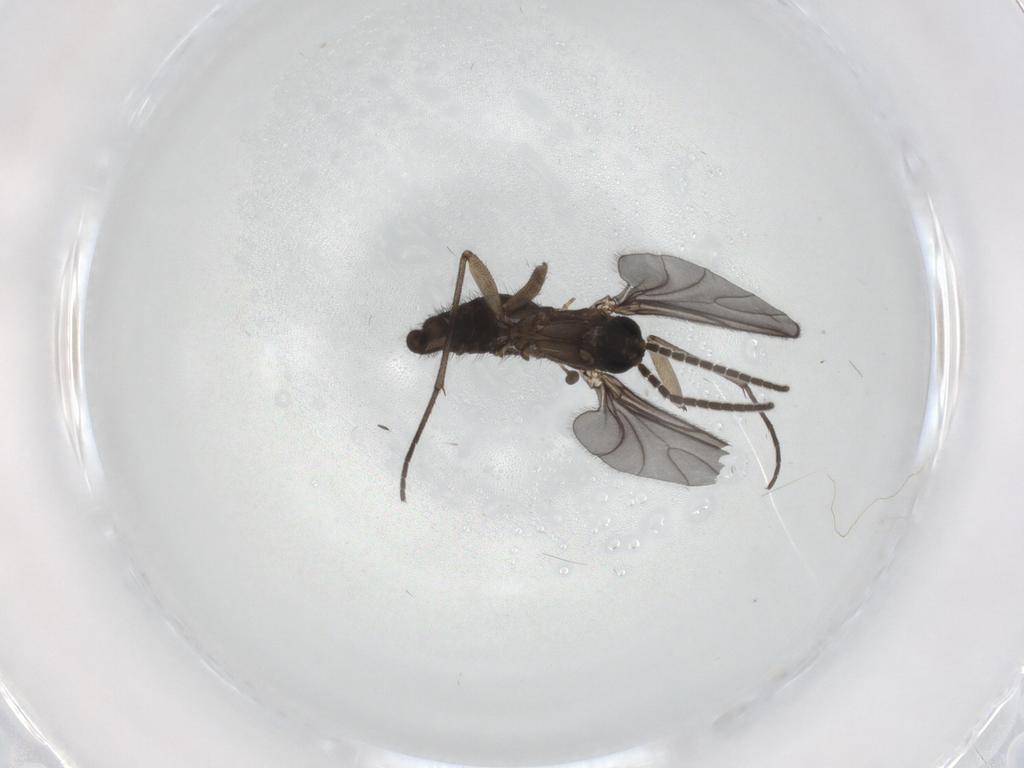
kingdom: Animalia
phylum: Arthropoda
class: Insecta
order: Diptera
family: Sciaridae
